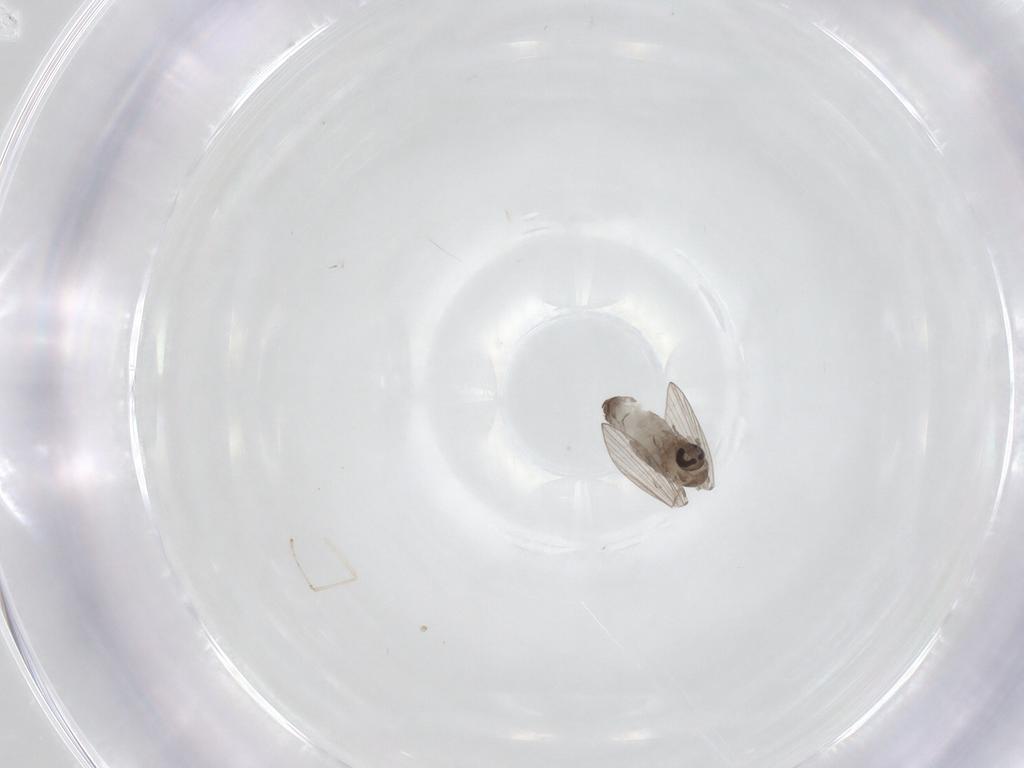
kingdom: Animalia
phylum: Arthropoda
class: Insecta
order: Diptera
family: Psychodidae
